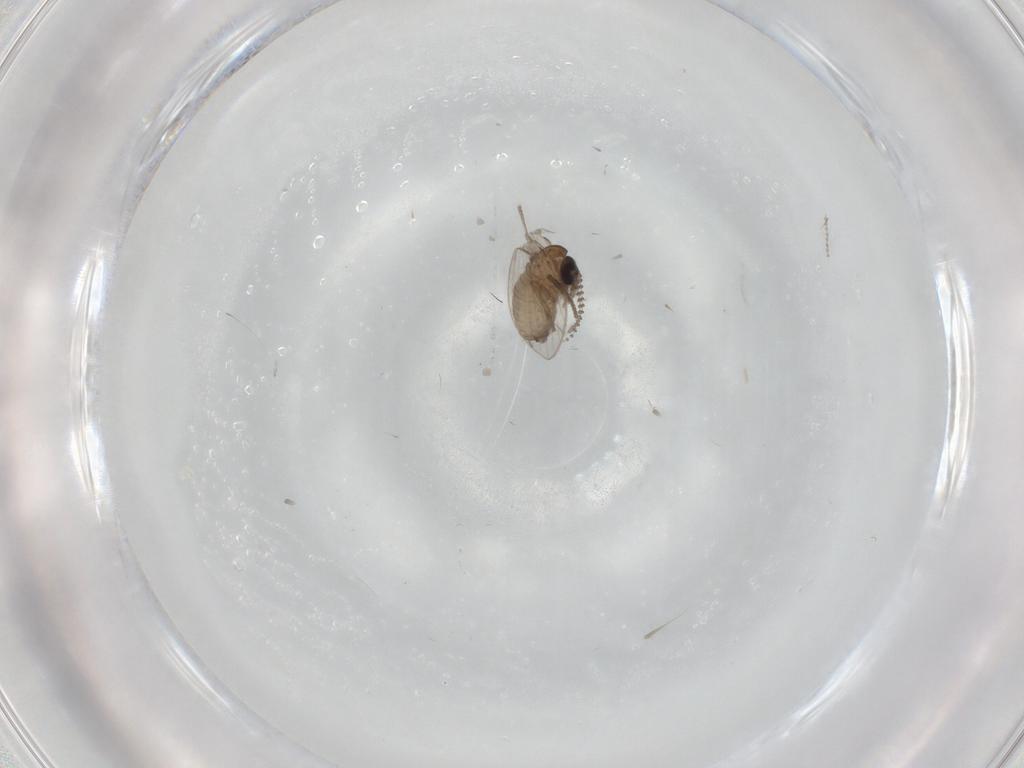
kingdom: Animalia
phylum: Arthropoda
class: Insecta
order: Diptera
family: Psychodidae
